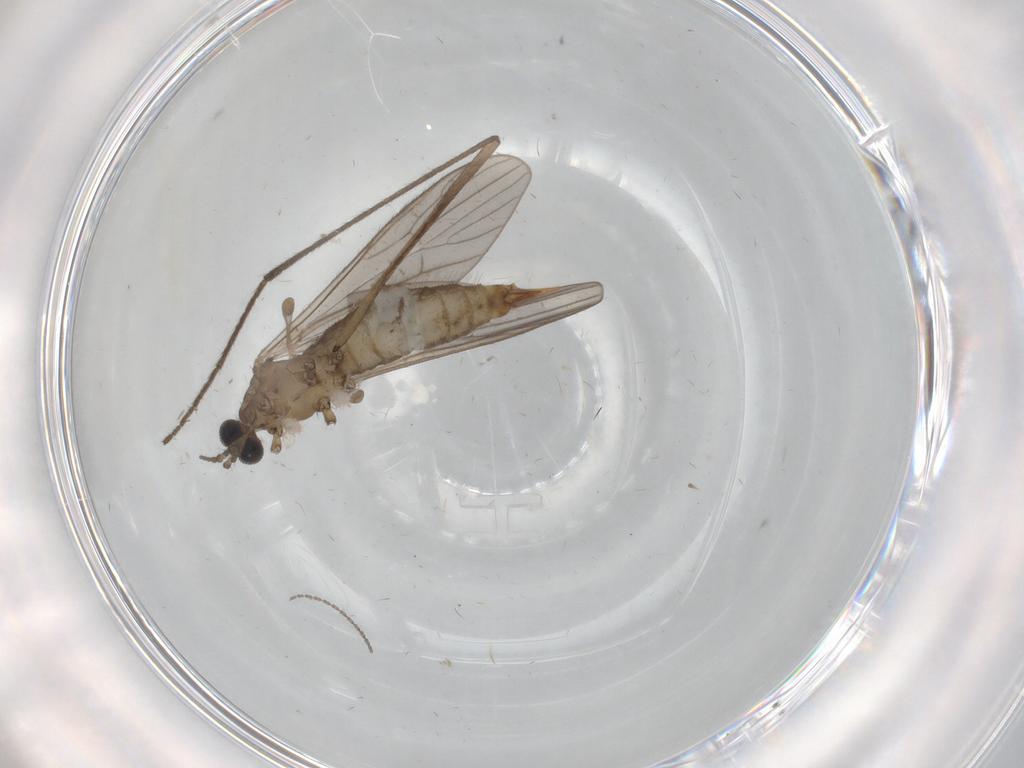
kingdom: Animalia
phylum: Arthropoda
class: Insecta
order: Diptera
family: Limoniidae
